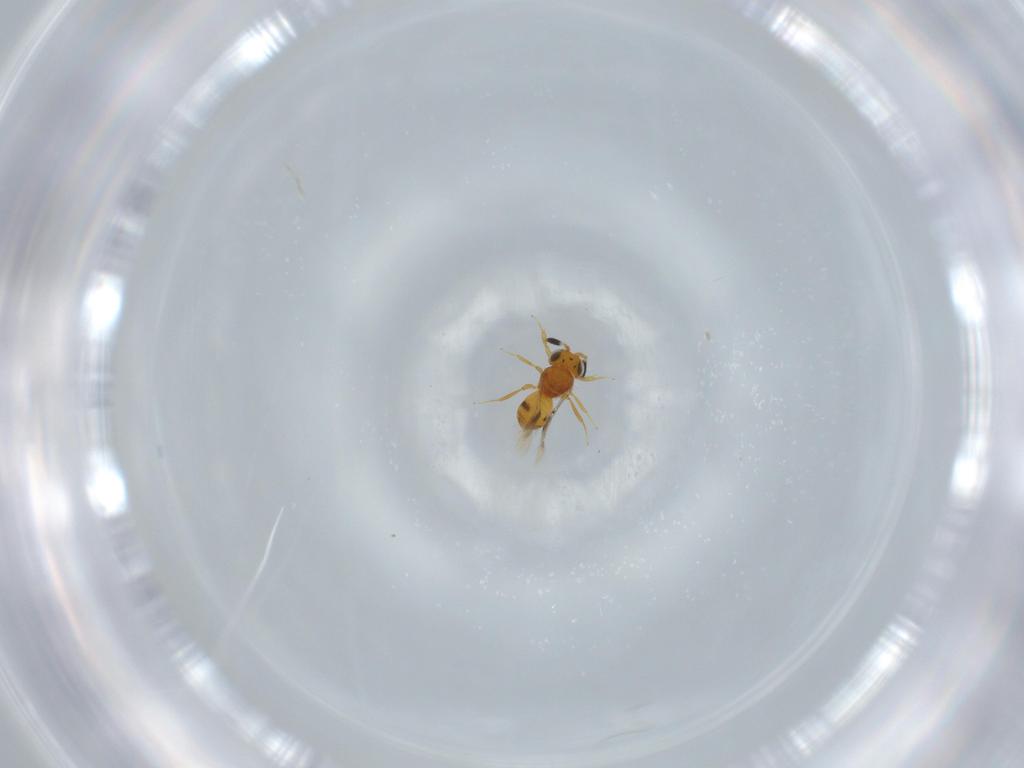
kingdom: Animalia
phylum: Arthropoda
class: Insecta
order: Hymenoptera
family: Scelionidae
